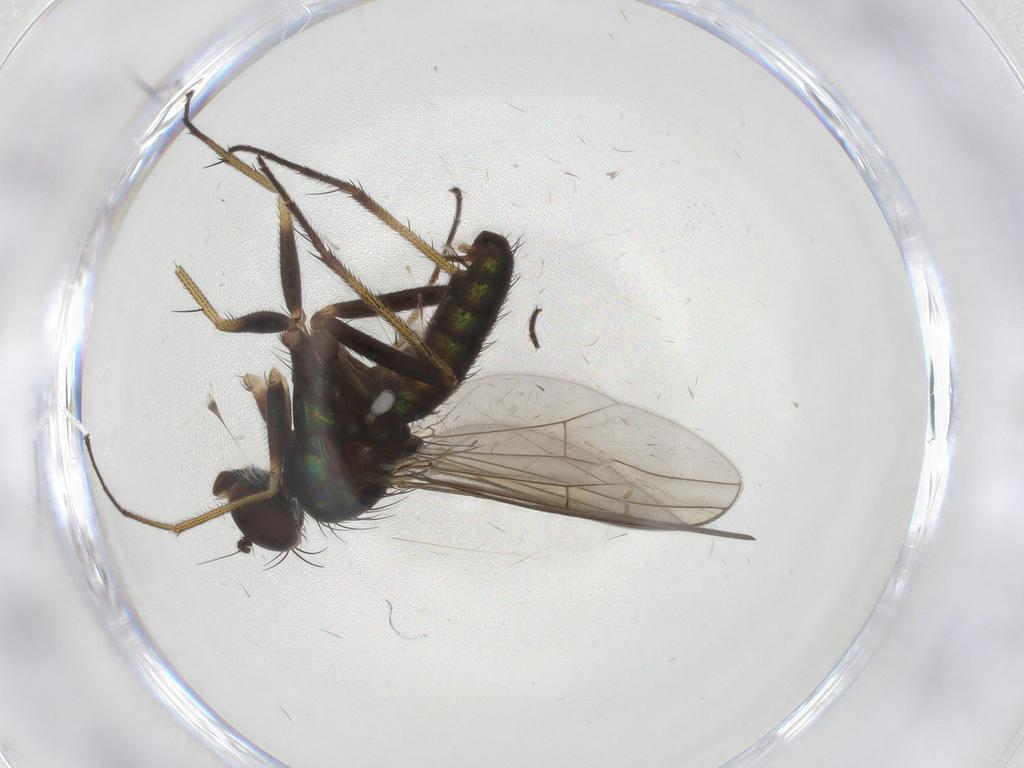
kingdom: Animalia
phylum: Arthropoda
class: Insecta
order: Diptera
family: Dolichopodidae
